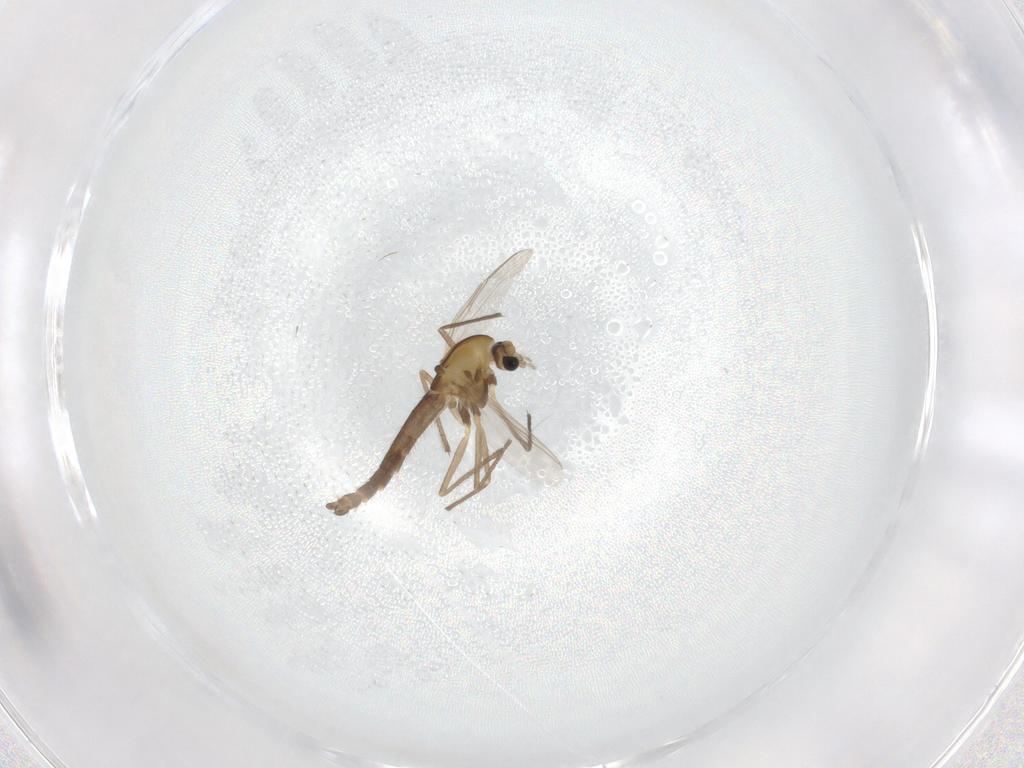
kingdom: Animalia
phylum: Arthropoda
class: Insecta
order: Diptera
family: Chironomidae
